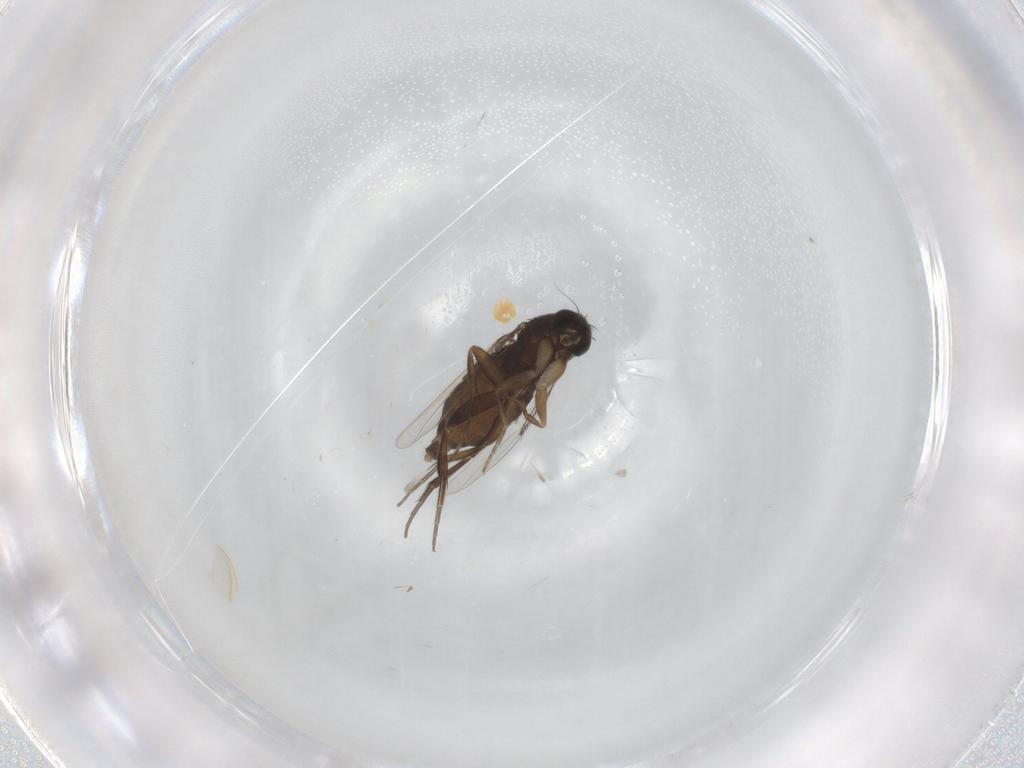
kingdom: Animalia
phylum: Arthropoda
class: Insecta
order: Diptera
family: Phoridae
